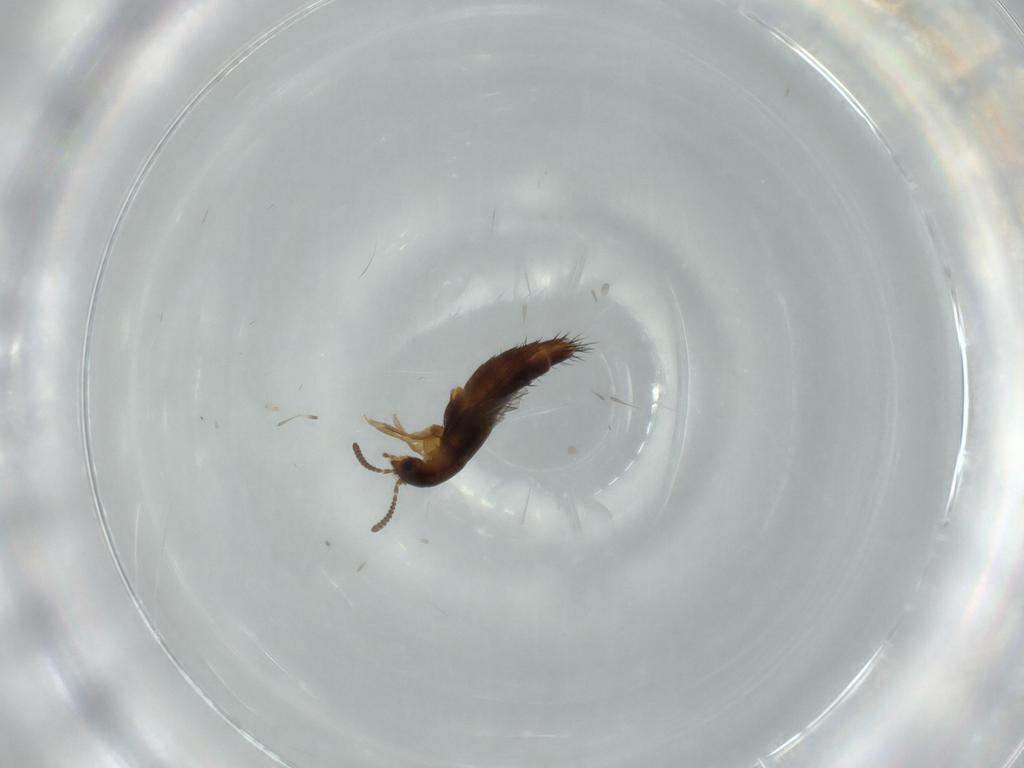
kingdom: Animalia
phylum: Arthropoda
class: Insecta
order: Coleoptera
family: Staphylinidae
